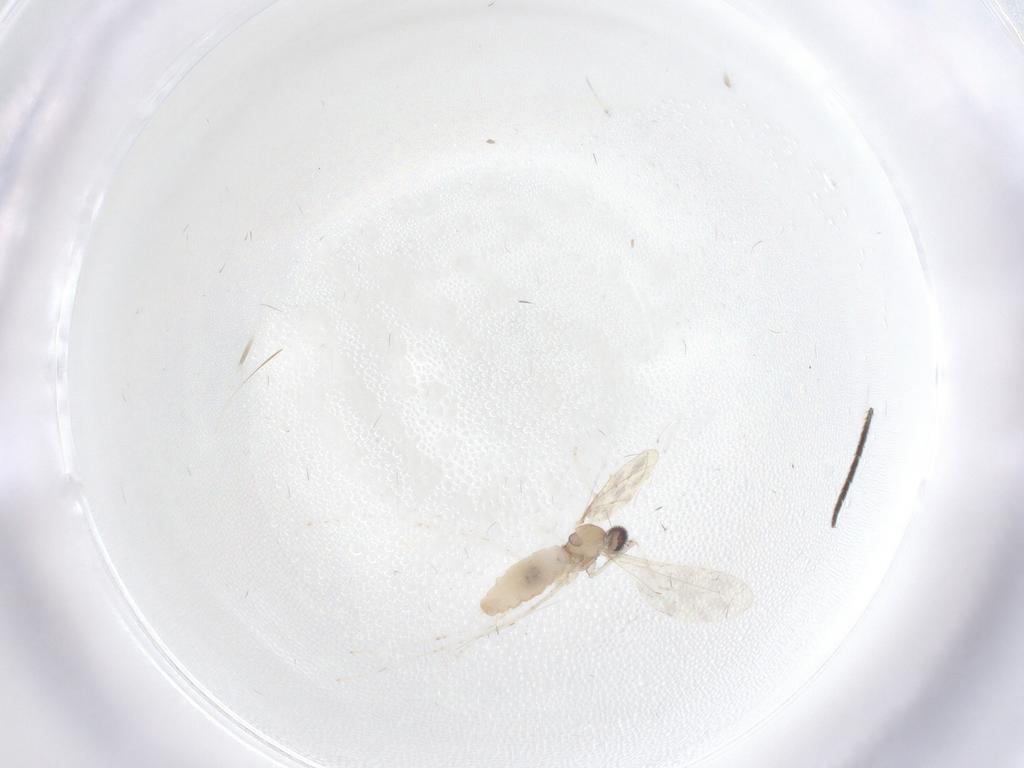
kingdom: Animalia
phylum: Arthropoda
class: Insecta
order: Diptera
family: Cecidomyiidae
